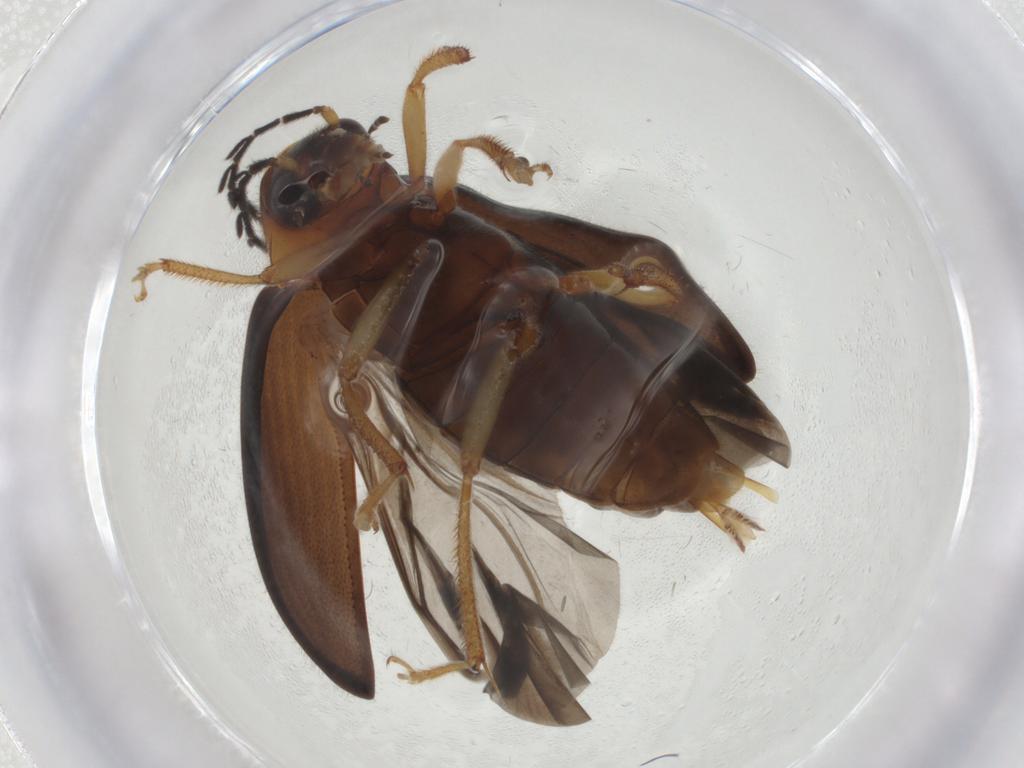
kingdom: Animalia
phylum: Arthropoda
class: Insecta
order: Coleoptera
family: Ptilodactylidae
